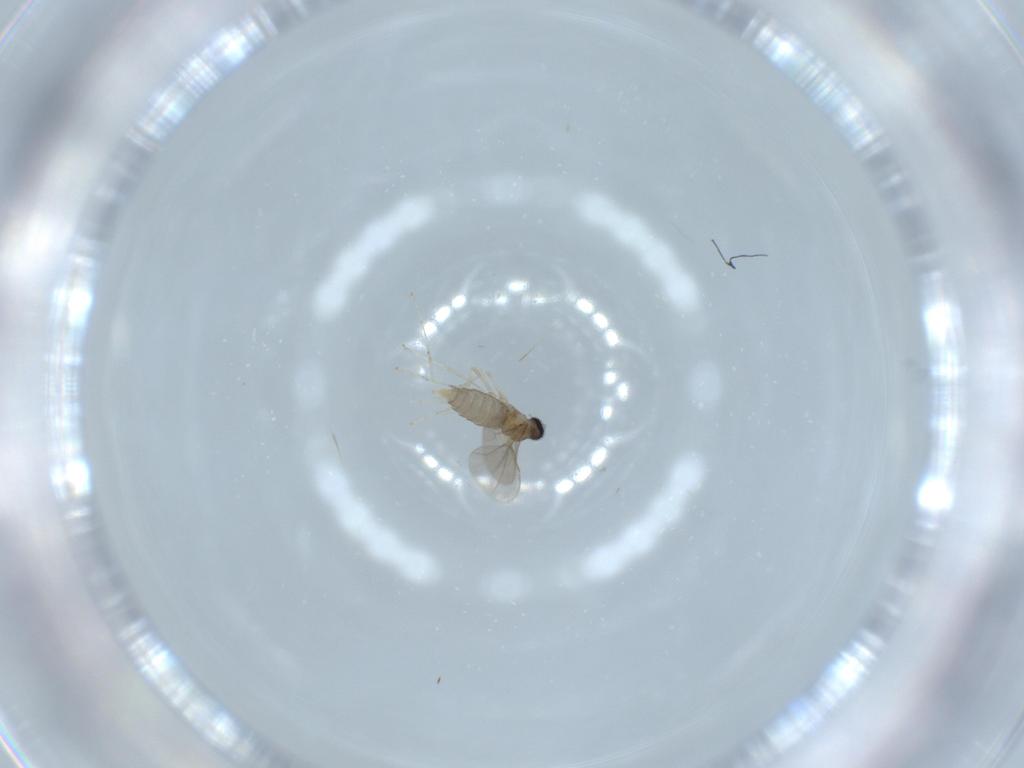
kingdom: Animalia
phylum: Arthropoda
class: Insecta
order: Diptera
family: Cecidomyiidae
